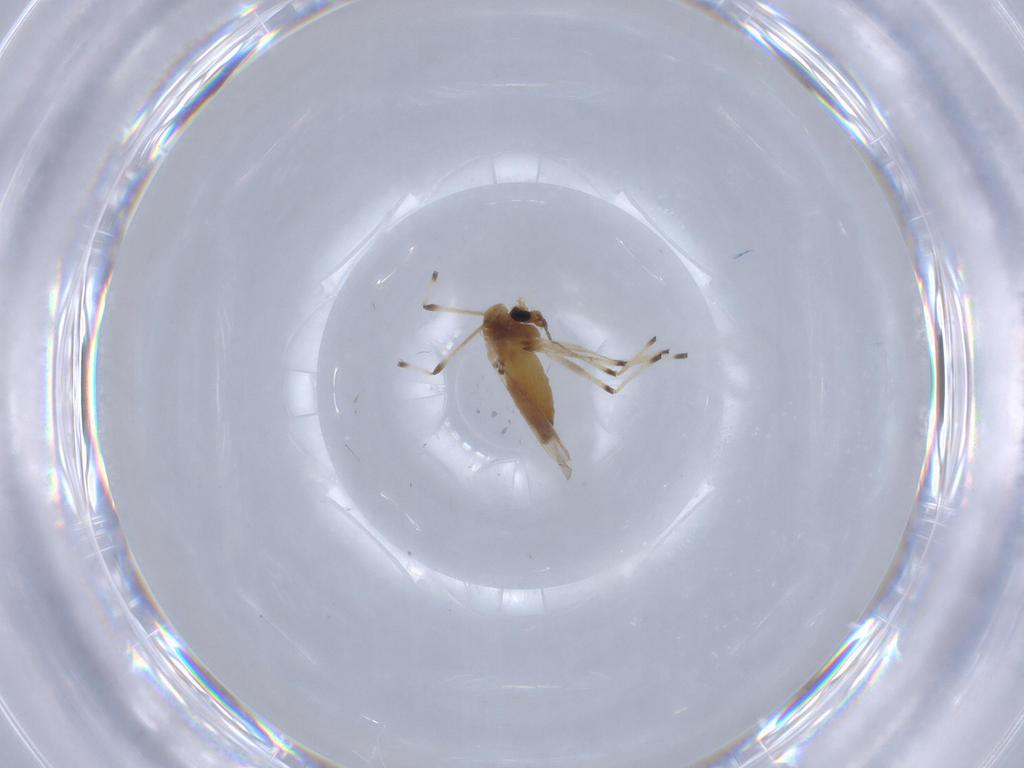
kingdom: Animalia
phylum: Arthropoda
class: Insecta
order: Diptera
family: Chironomidae
